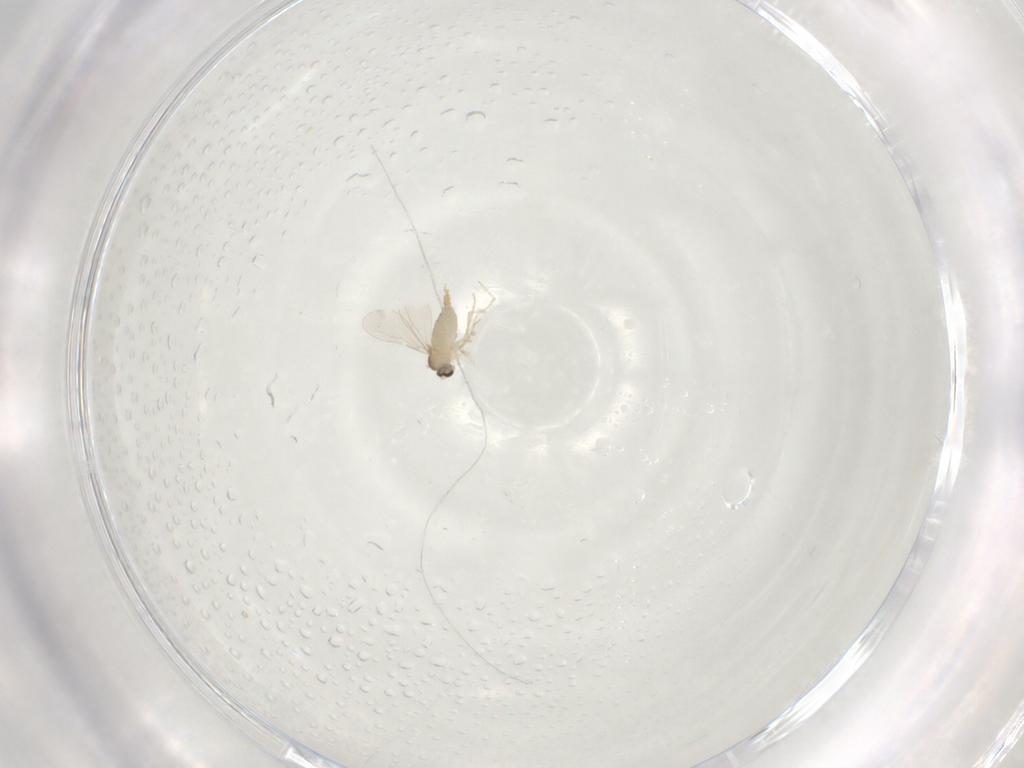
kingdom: Animalia
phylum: Arthropoda
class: Insecta
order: Diptera
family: Cecidomyiidae
